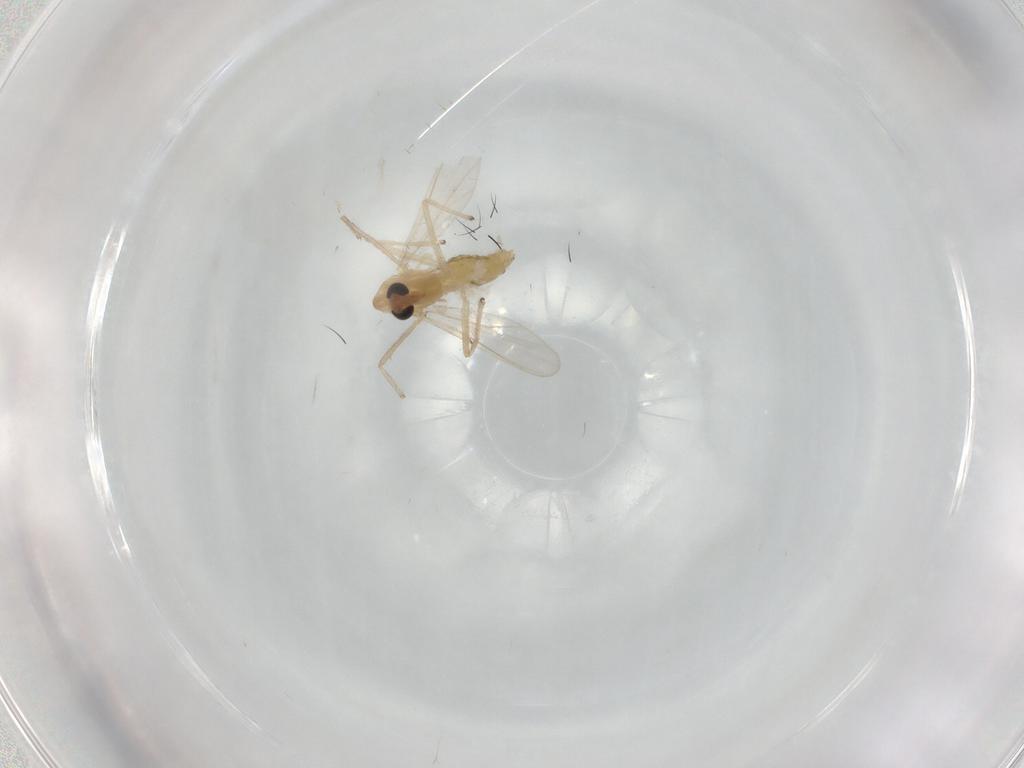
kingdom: Animalia
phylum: Arthropoda
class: Insecta
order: Diptera
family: Chironomidae
